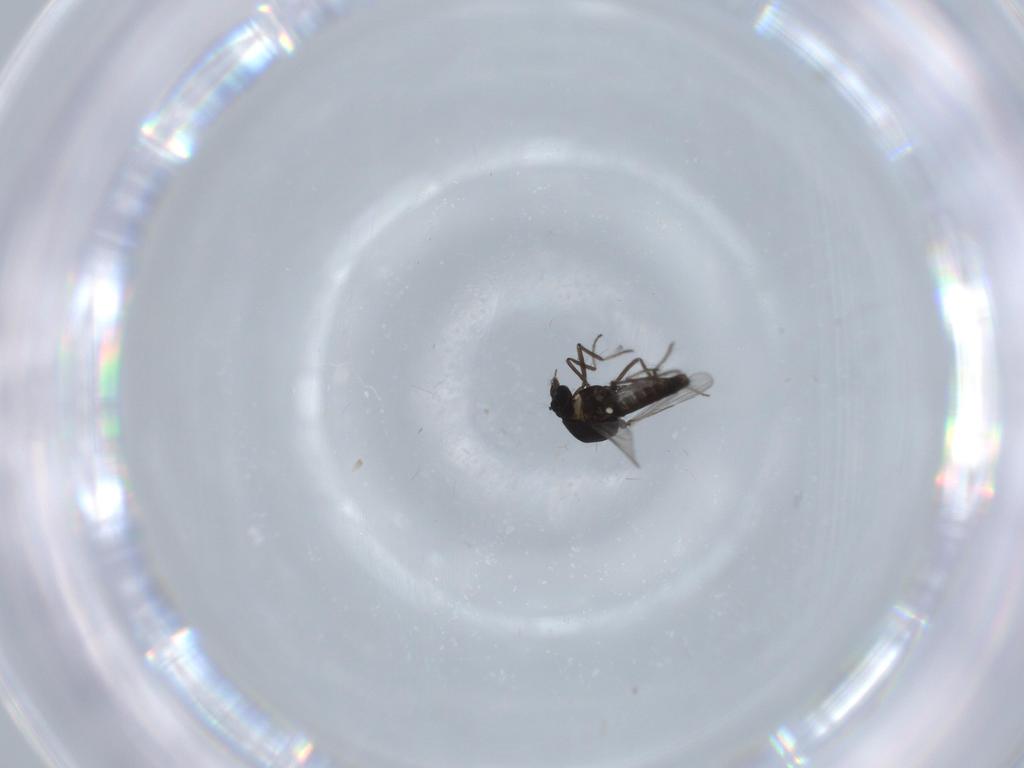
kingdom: Animalia
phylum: Arthropoda
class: Insecta
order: Diptera
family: Ceratopogonidae
